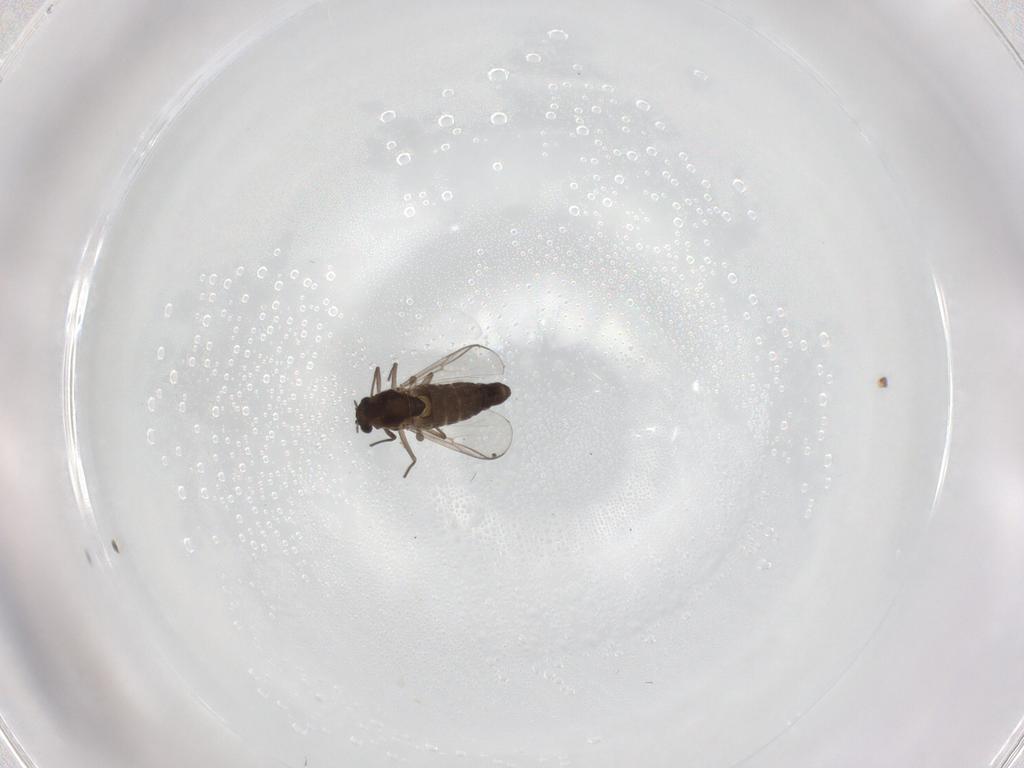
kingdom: Animalia
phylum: Arthropoda
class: Insecta
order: Diptera
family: Chironomidae
